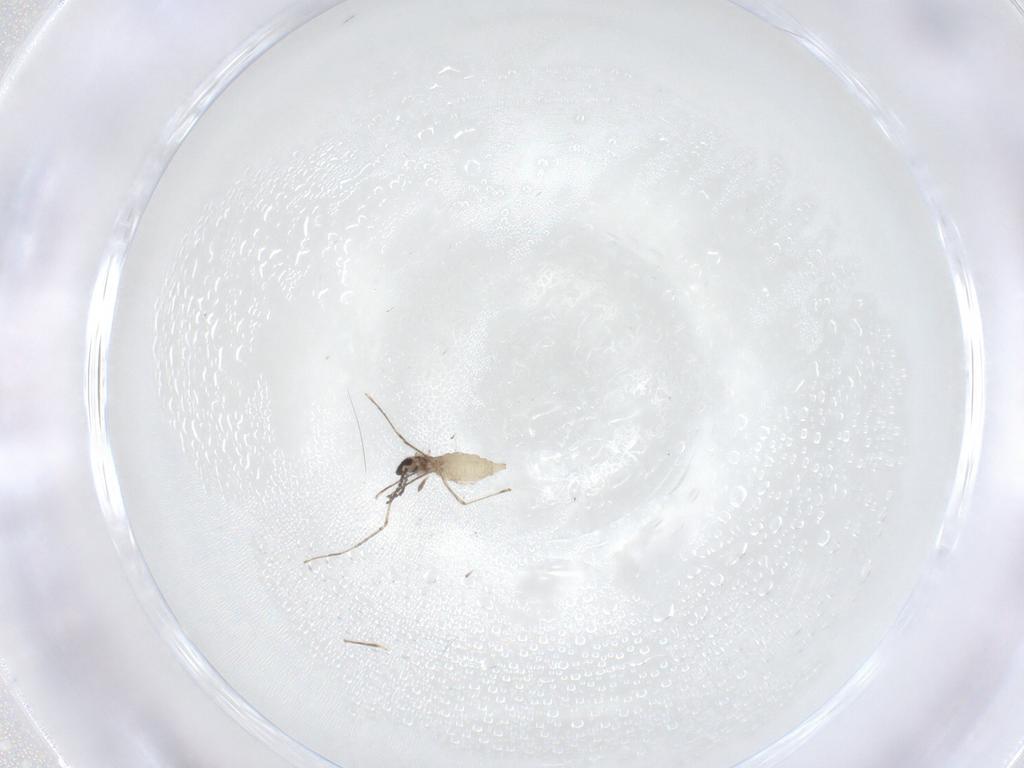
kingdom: Animalia
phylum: Arthropoda
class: Insecta
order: Diptera
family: Cecidomyiidae
